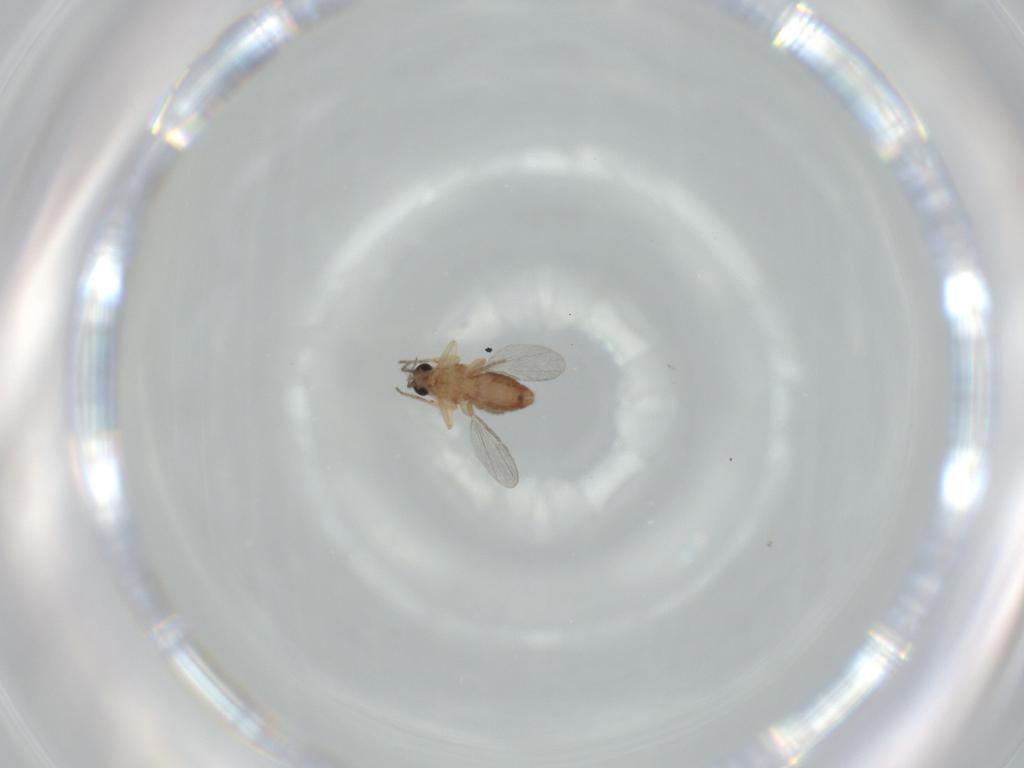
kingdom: Animalia
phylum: Arthropoda
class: Insecta
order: Diptera
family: Ceratopogonidae
